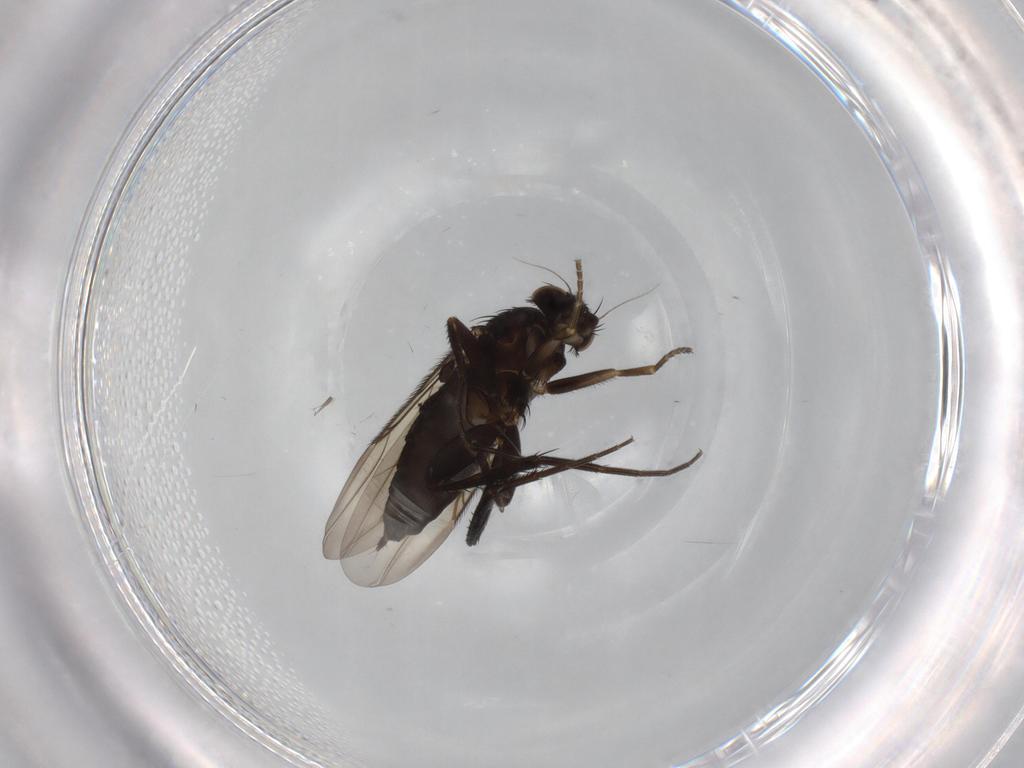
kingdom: Animalia
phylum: Arthropoda
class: Insecta
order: Diptera
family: Phoridae
